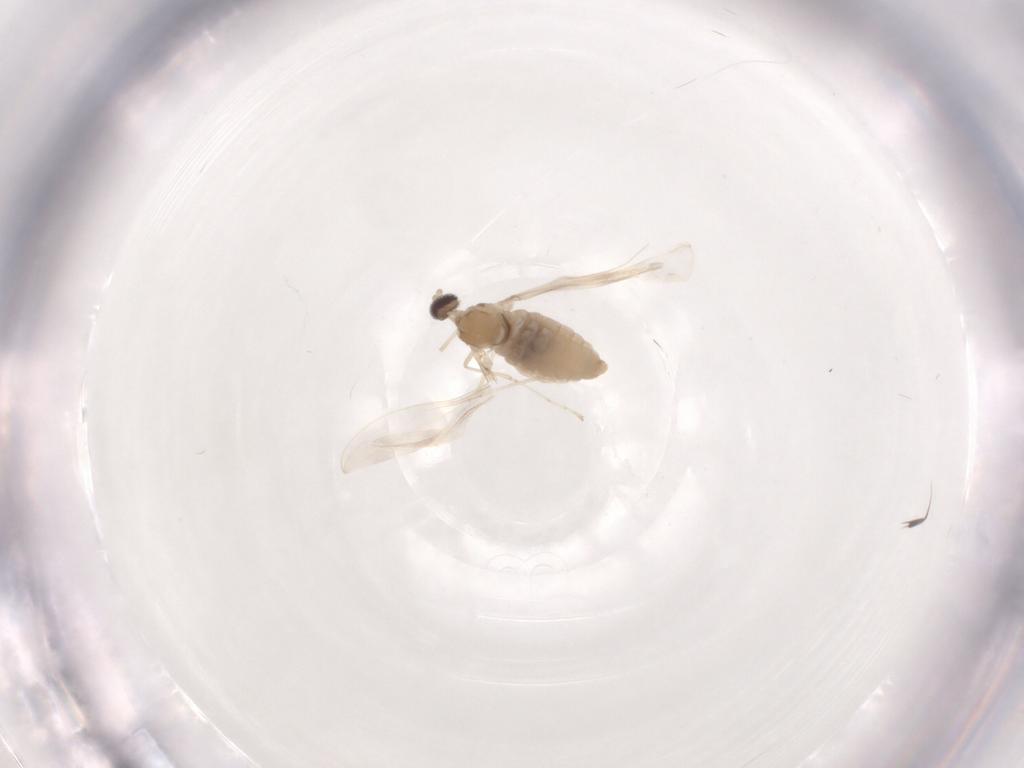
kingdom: Animalia
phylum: Arthropoda
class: Insecta
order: Diptera
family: Cecidomyiidae
